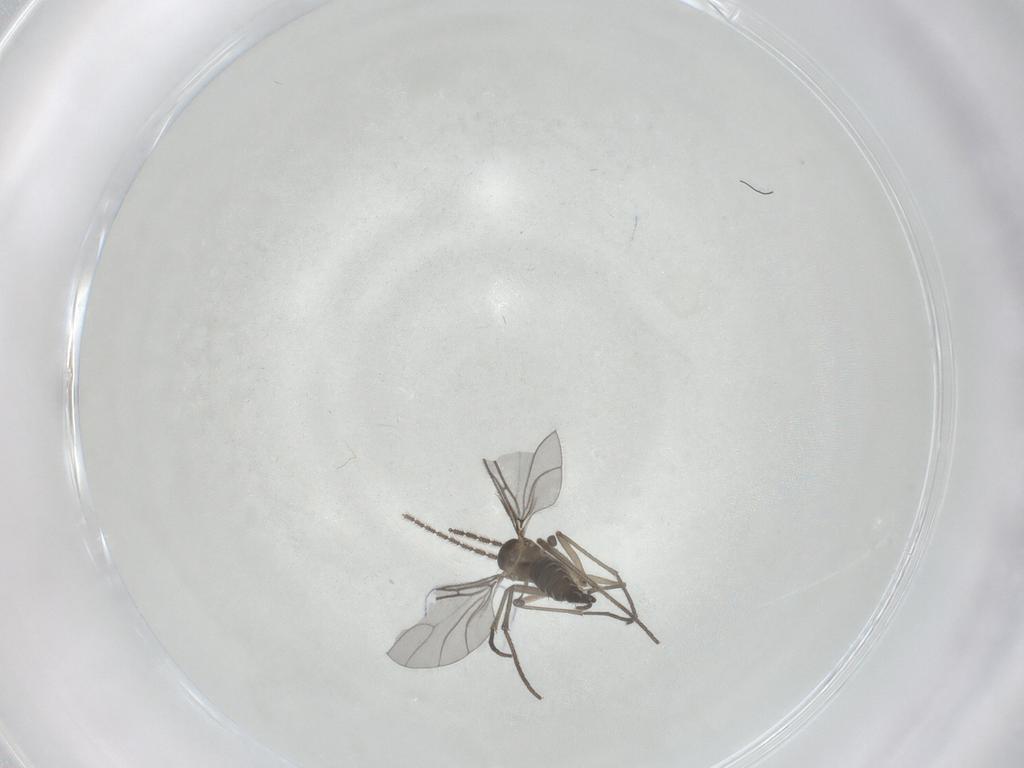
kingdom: Animalia
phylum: Arthropoda
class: Insecta
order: Diptera
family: Sciaridae
